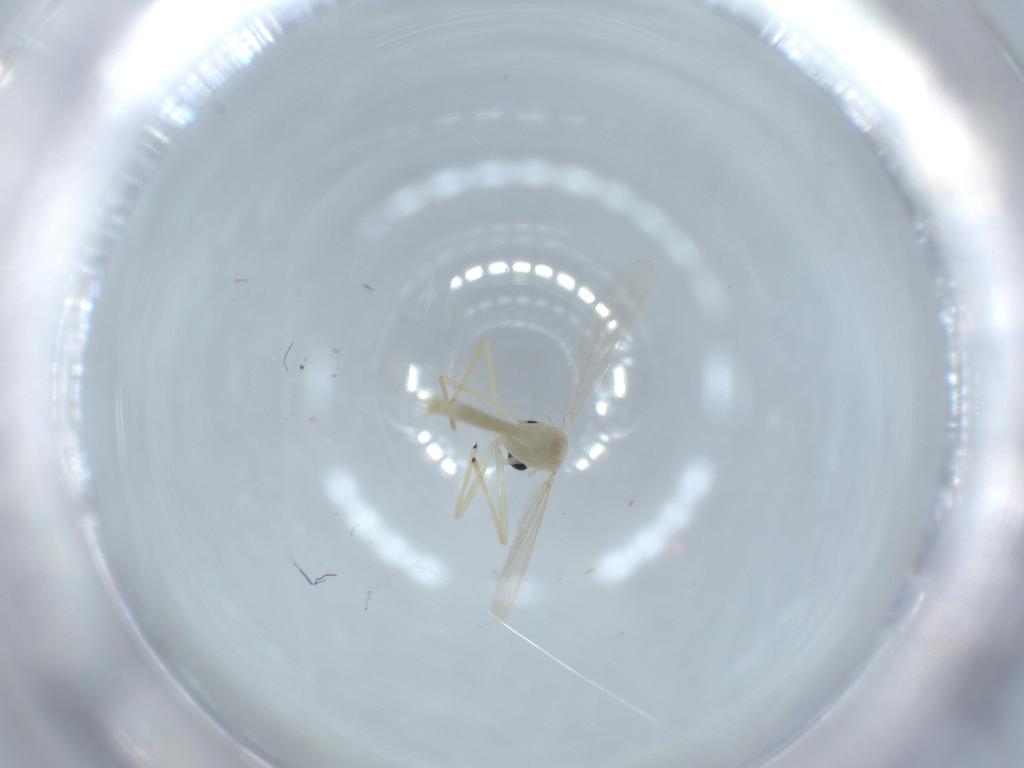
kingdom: Animalia
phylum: Arthropoda
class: Insecta
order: Diptera
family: Chironomidae
